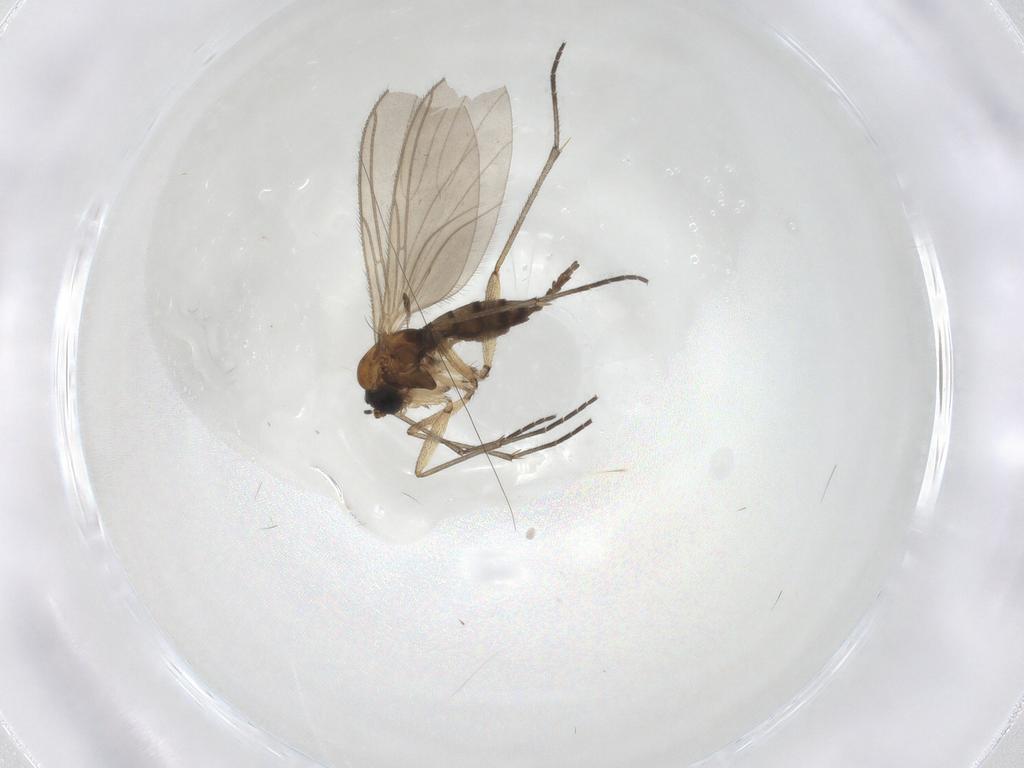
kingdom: Animalia
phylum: Arthropoda
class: Insecta
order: Diptera
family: Sciaridae
